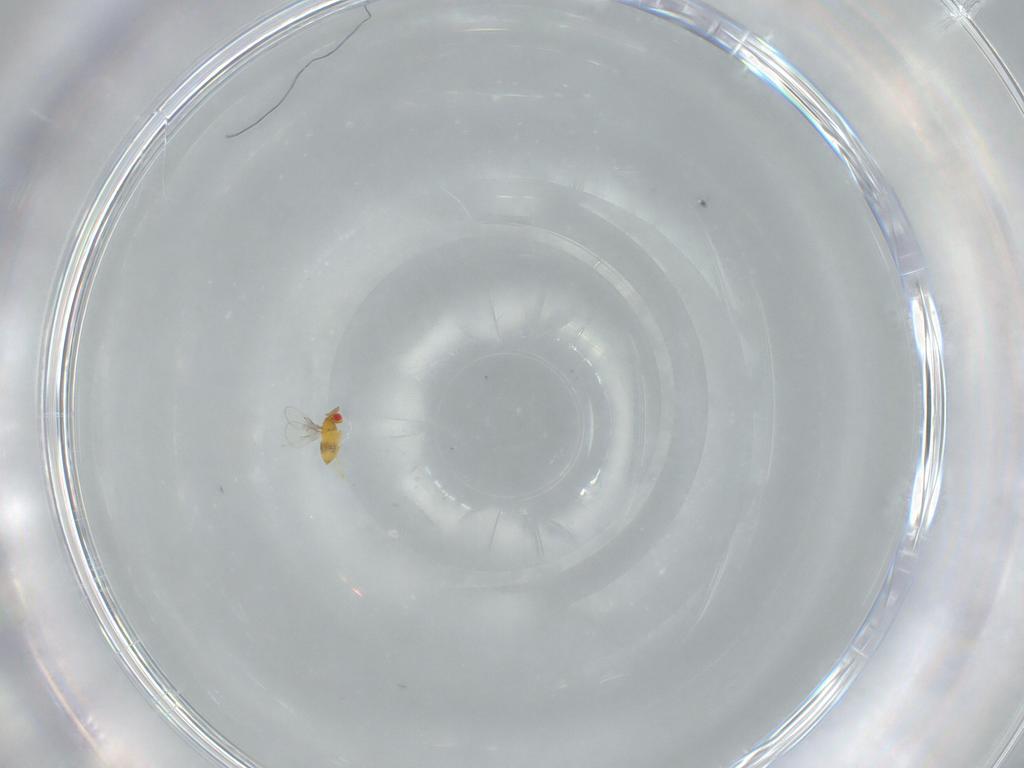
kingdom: Animalia
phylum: Arthropoda
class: Insecta
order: Hymenoptera
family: Trichogrammatidae
